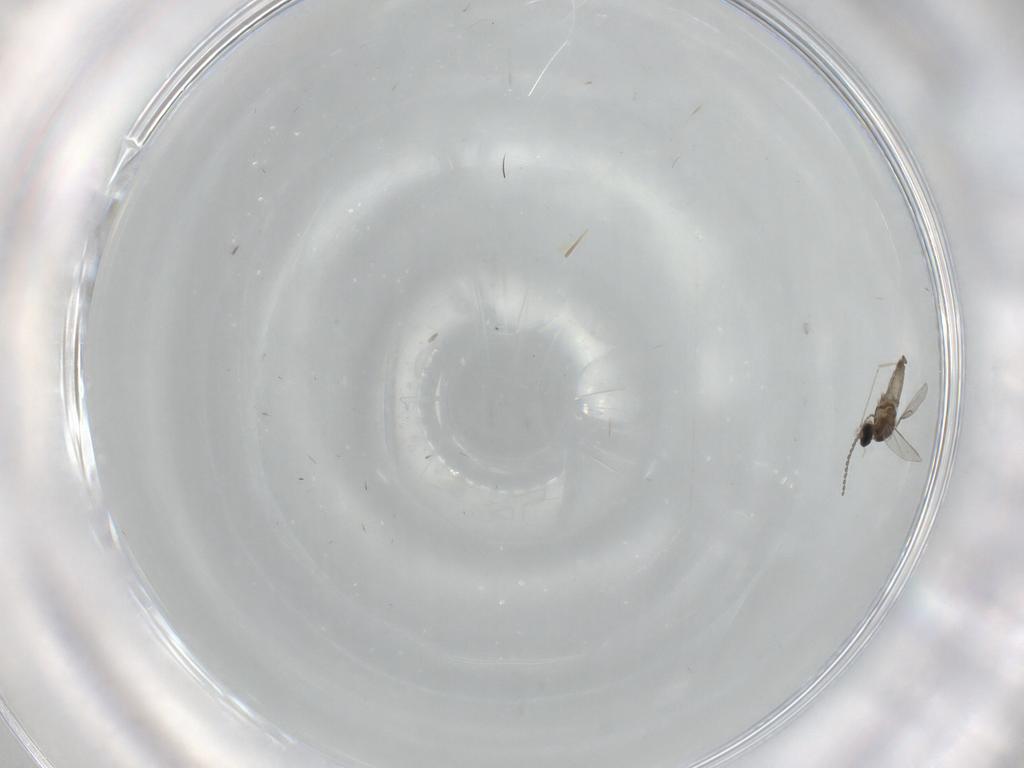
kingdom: Animalia
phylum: Arthropoda
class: Insecta
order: Diptera
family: Cecidomyiidae
